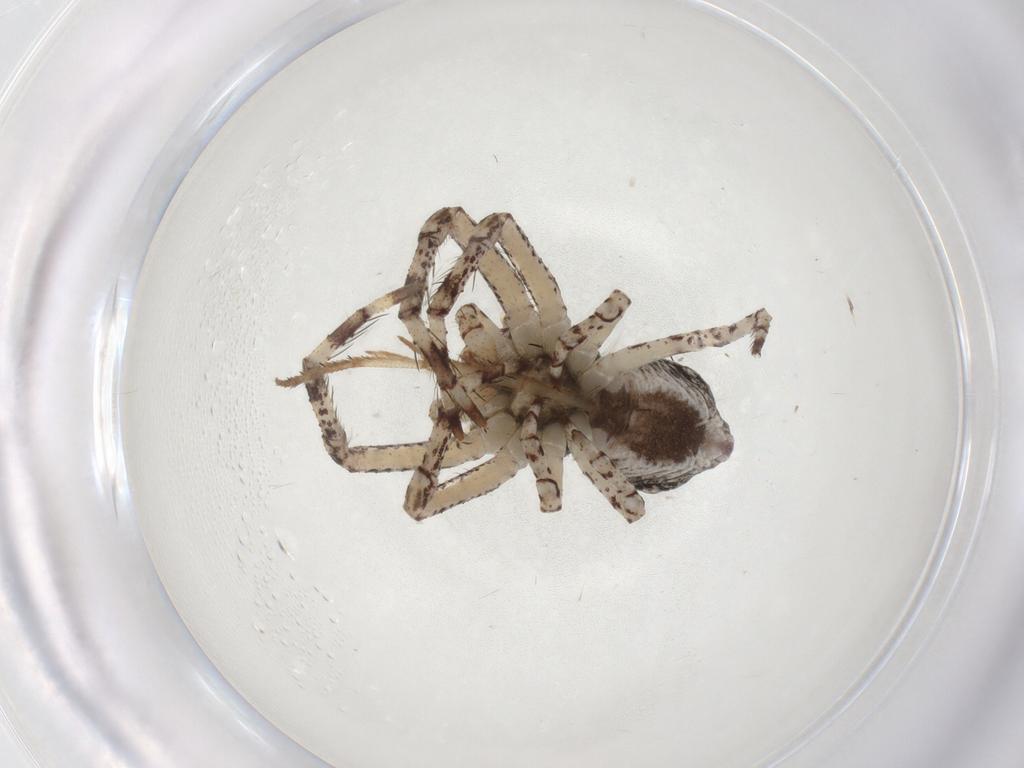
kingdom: Animalia
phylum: Arthropoda
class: Arachnida
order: Araneae
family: Thomisidae
